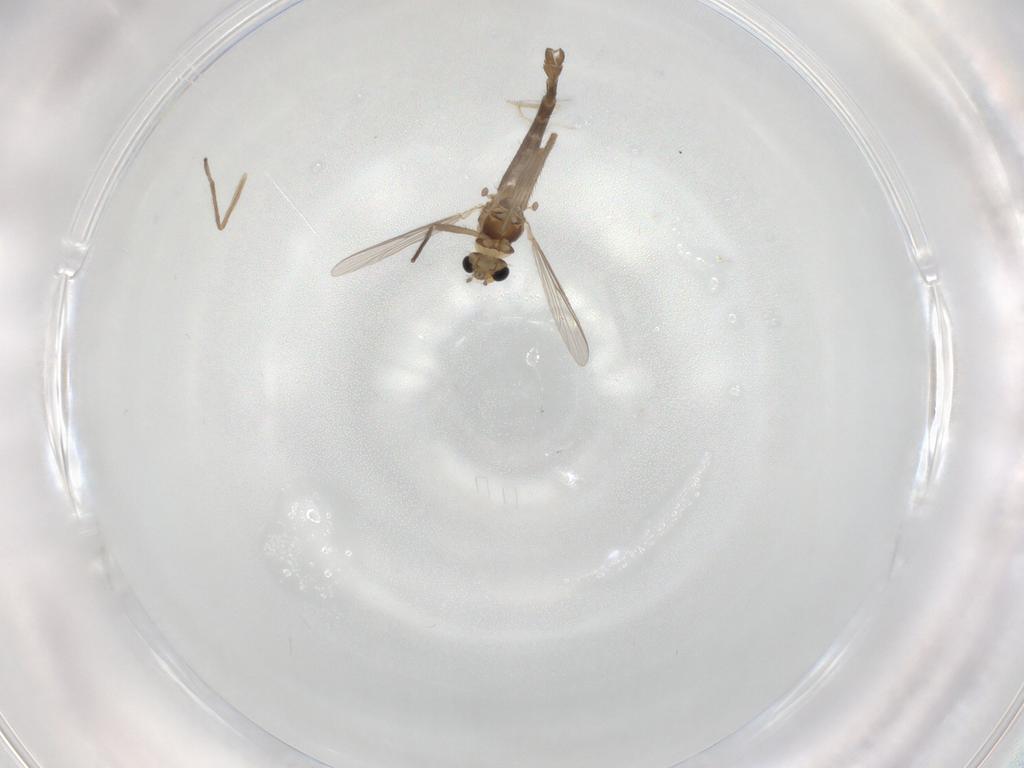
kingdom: Animalia
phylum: Arthropoda
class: Insecta
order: Diptera
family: Chironomidae
